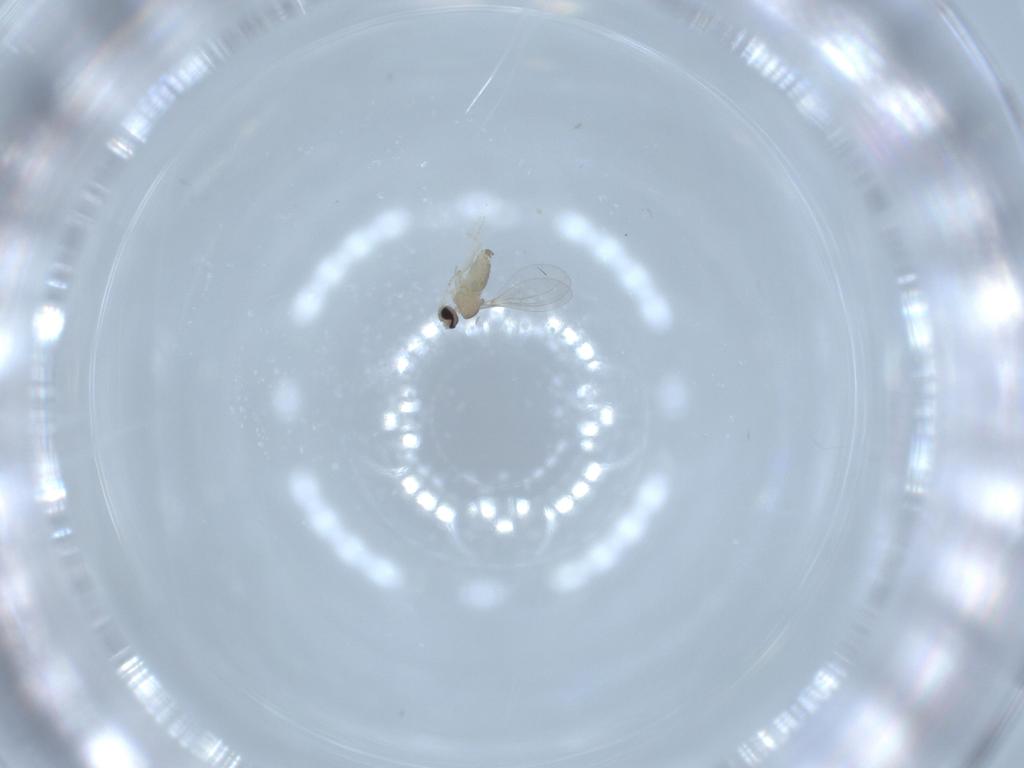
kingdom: Animalia
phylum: Arthropoda
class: Insecta
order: Diptera
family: Cecidomyiidae
